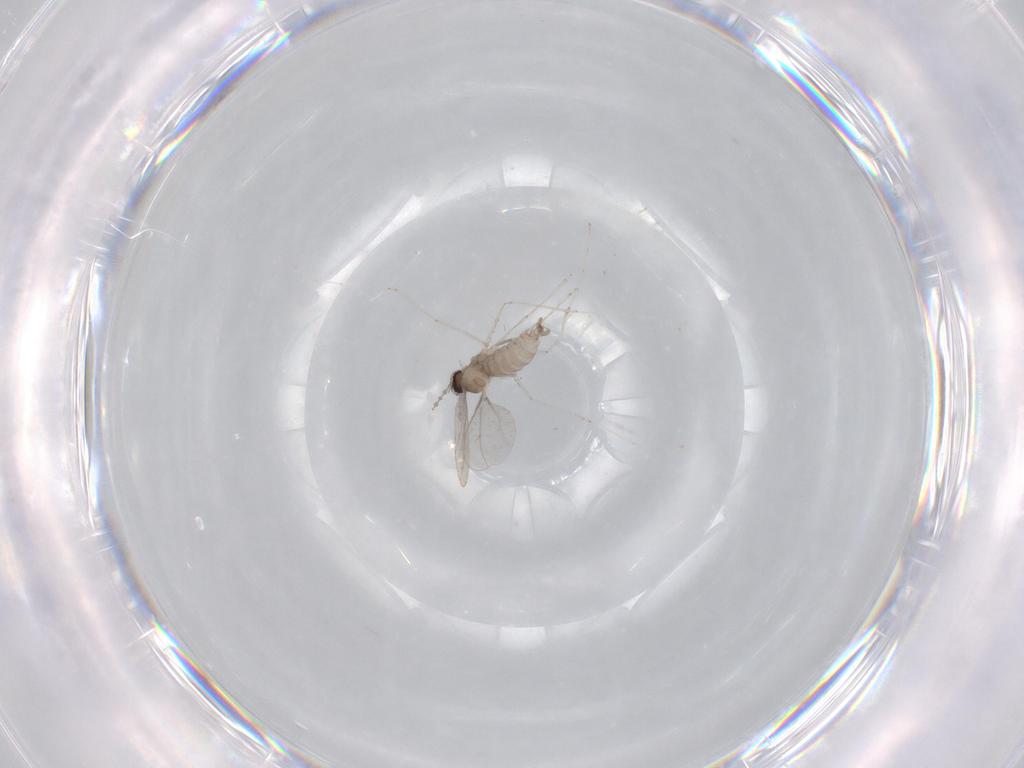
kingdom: Animalia
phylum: Arthropoda
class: Insecta
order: Diptera
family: Cecidomyiidae
